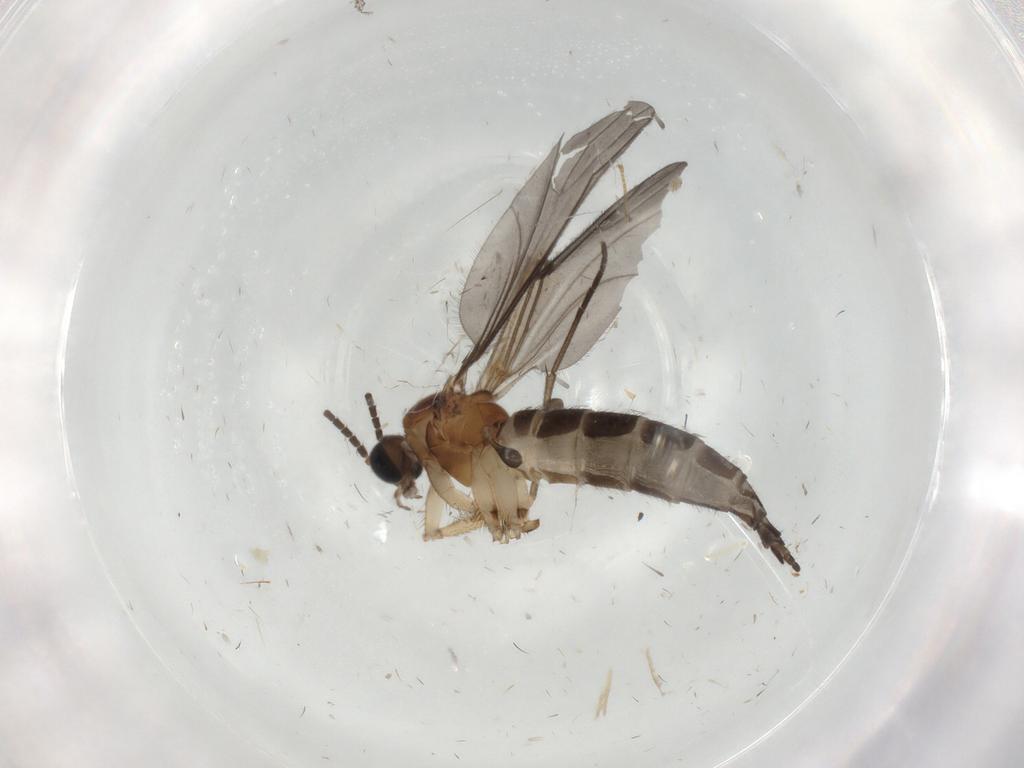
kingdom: Animalia
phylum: Arthropoda
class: Insecta
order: Diptera
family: Sciaridae
